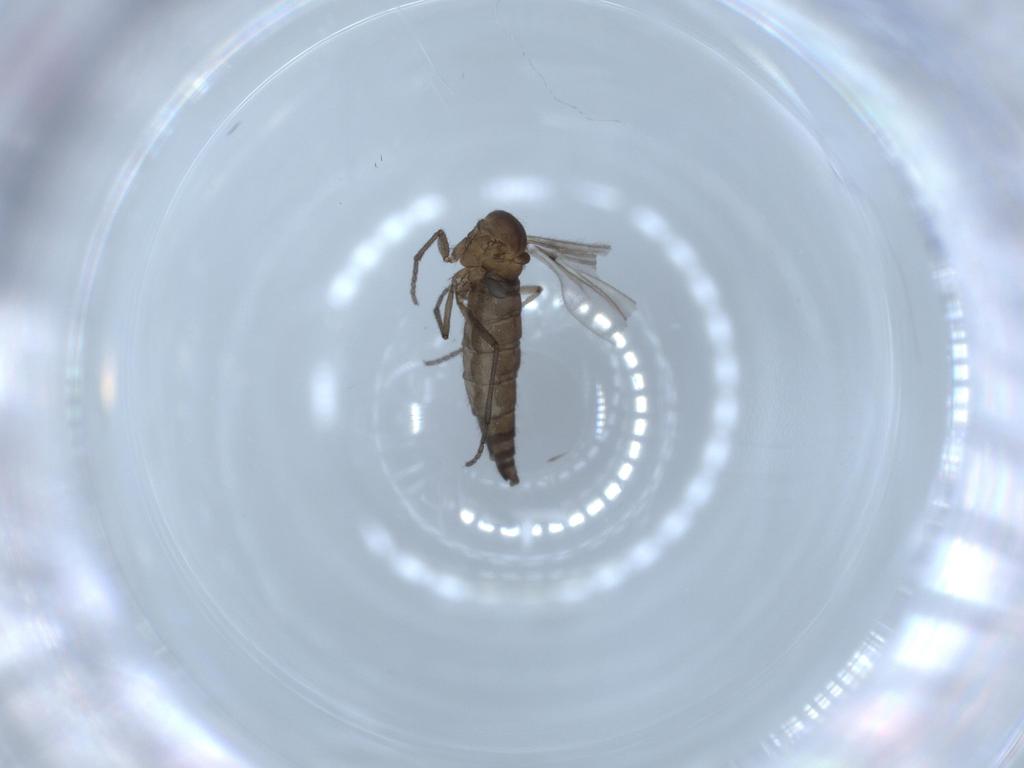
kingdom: Animalia
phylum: Arthropoda
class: Insecta
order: Diptera
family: Sciaridae
